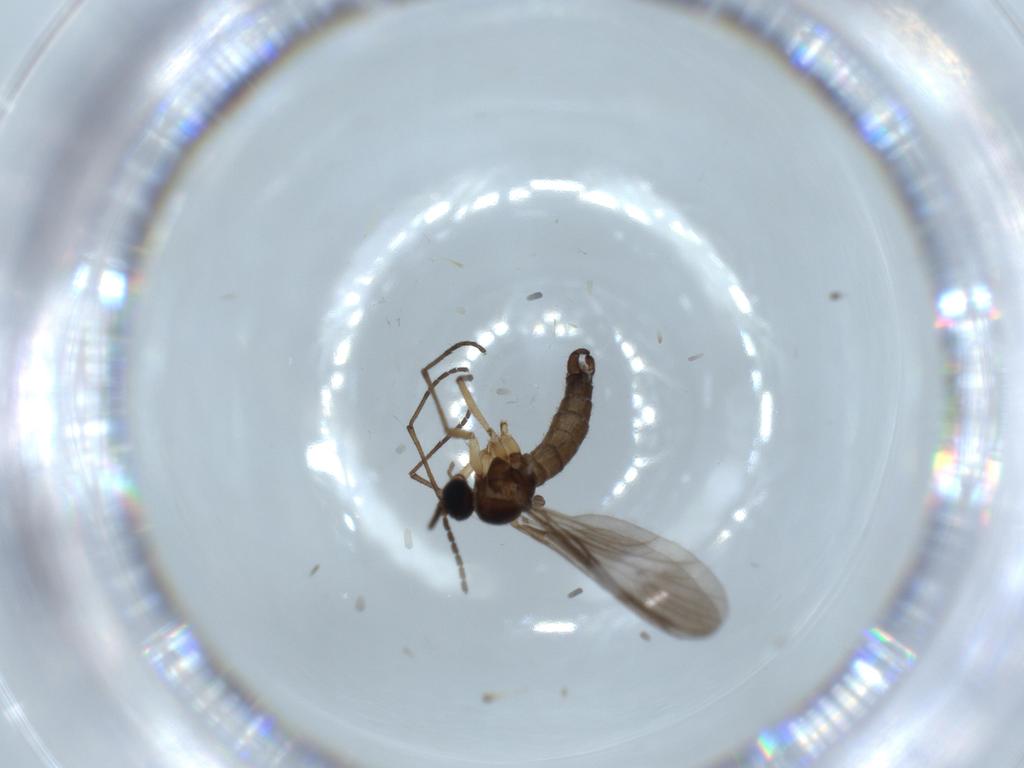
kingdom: Animalia
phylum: Arthropoda
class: Insecta
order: Diptera
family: Sciaridae
